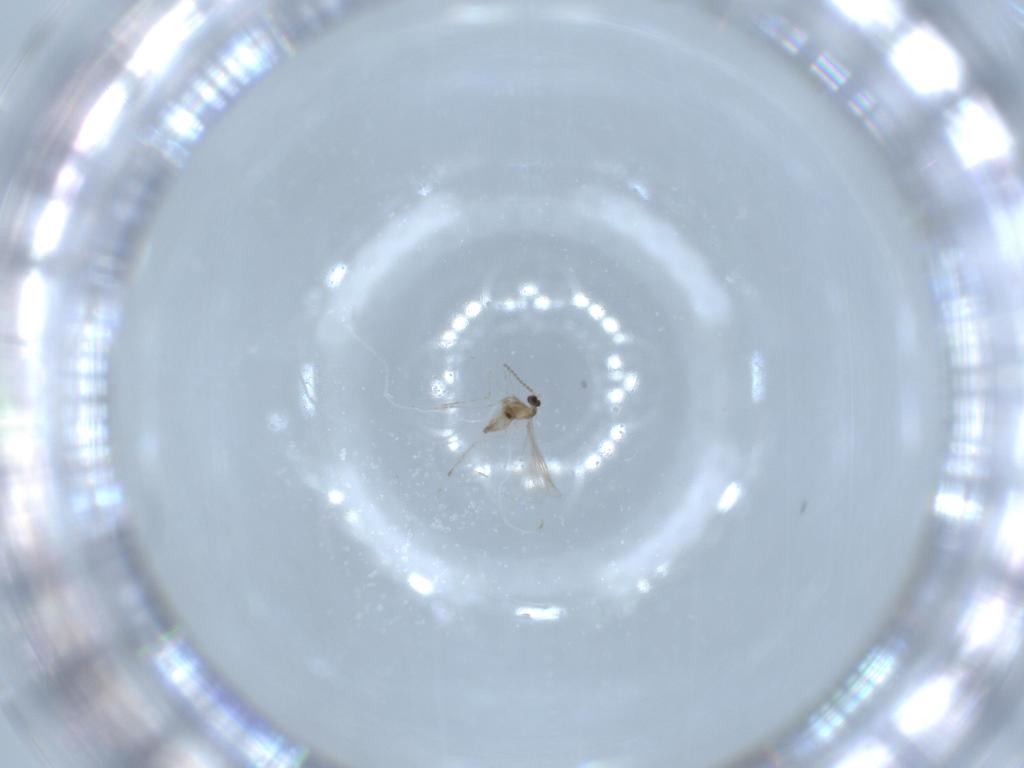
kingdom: Animalia
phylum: Arthropoda
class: Insecta
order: Diptera
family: Cecidomyiidae
